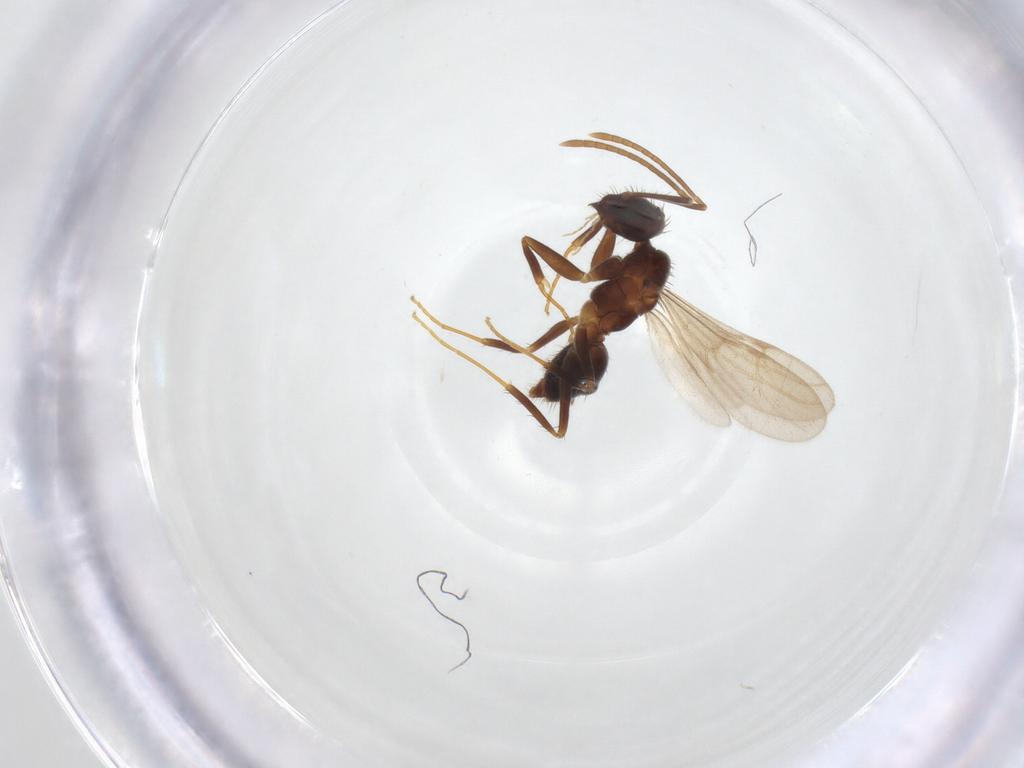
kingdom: Animalia
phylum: Arthropoda
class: Insecta
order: Hymenoptera
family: Formicidae
